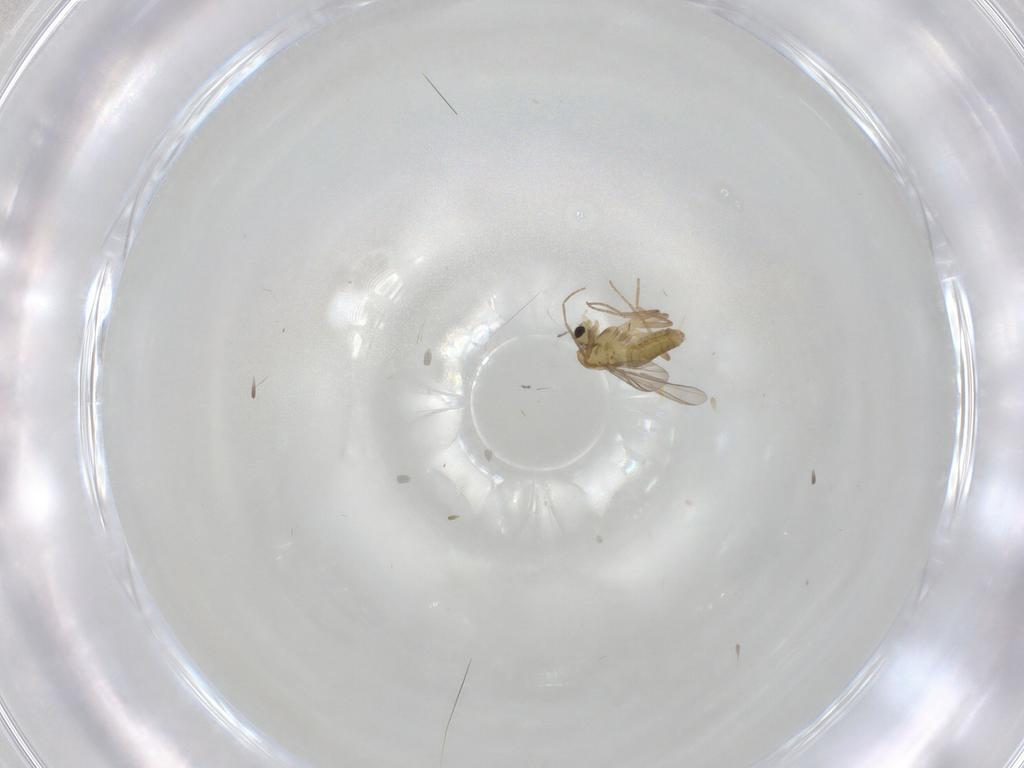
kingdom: Animalia
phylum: Arthropoda
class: Insecta
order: Diptera
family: Chironomidae
